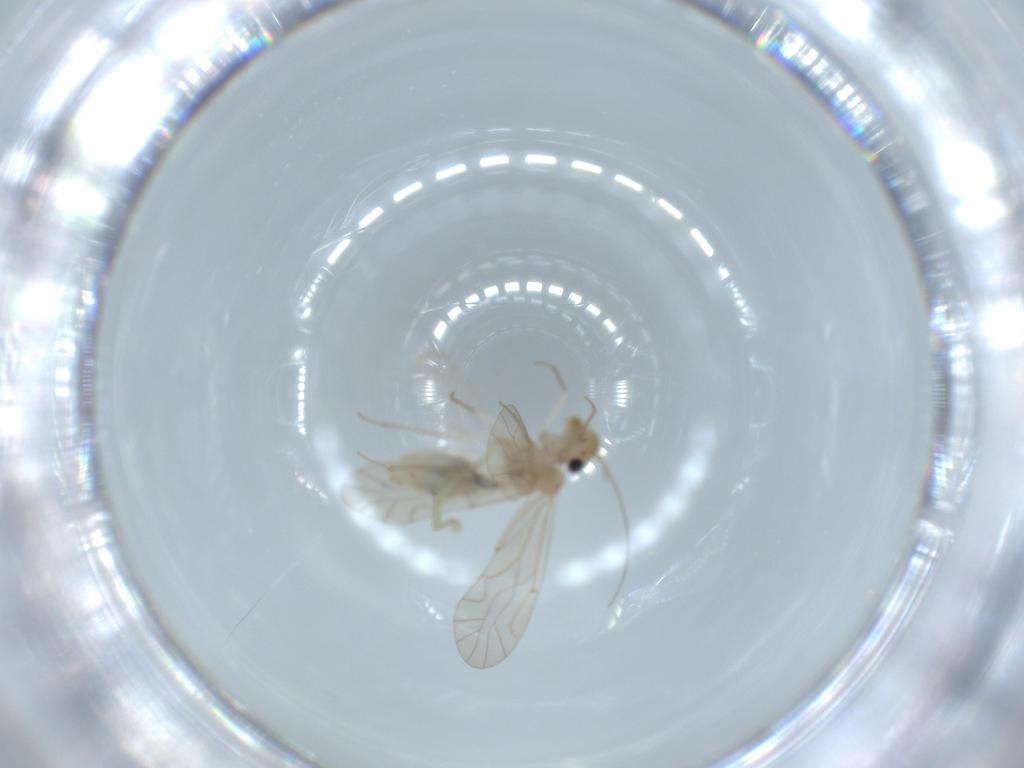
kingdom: Animalia
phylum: Arthropoda
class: Insecta
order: Psocodea
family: Lachesillidae
